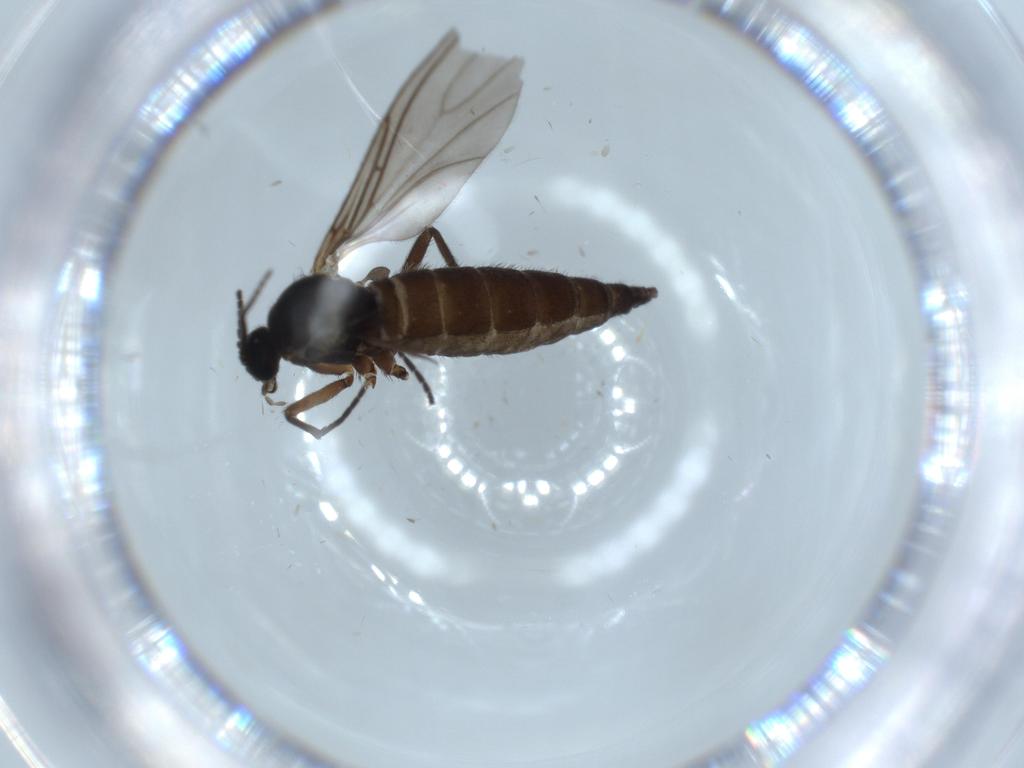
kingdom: Animalia
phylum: Arthropoda
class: Insecta
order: Diptera
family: Sciaridae
